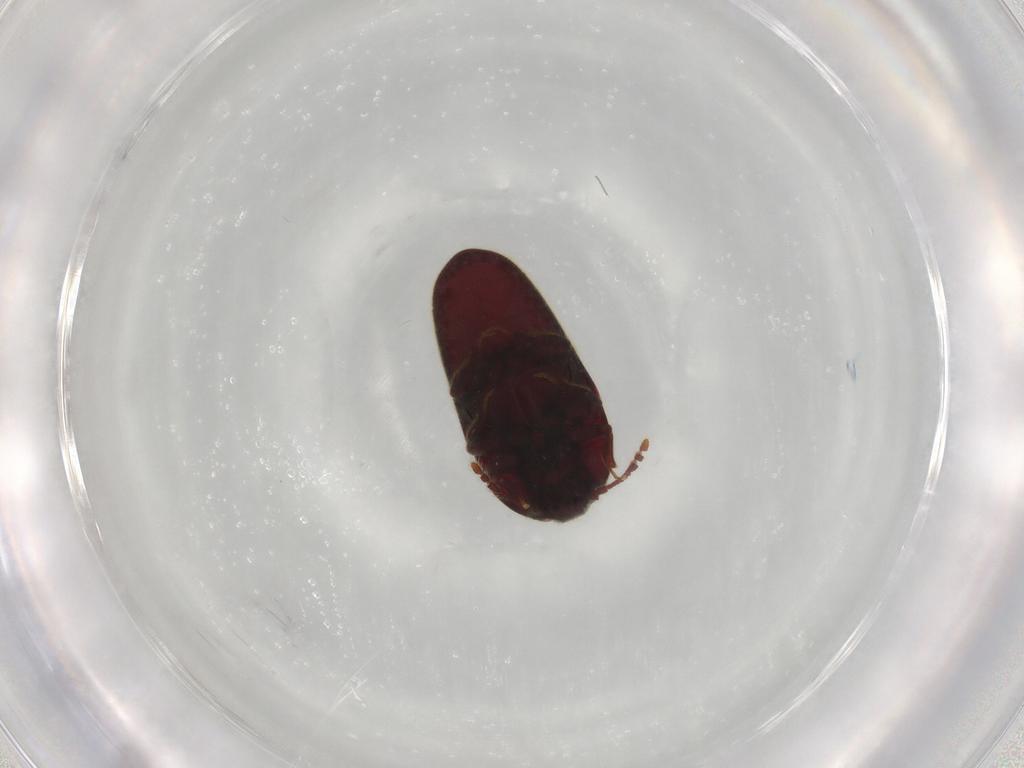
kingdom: Animalia
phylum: Arthropoda
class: Insecta
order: Coleoptera
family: Throscidae
